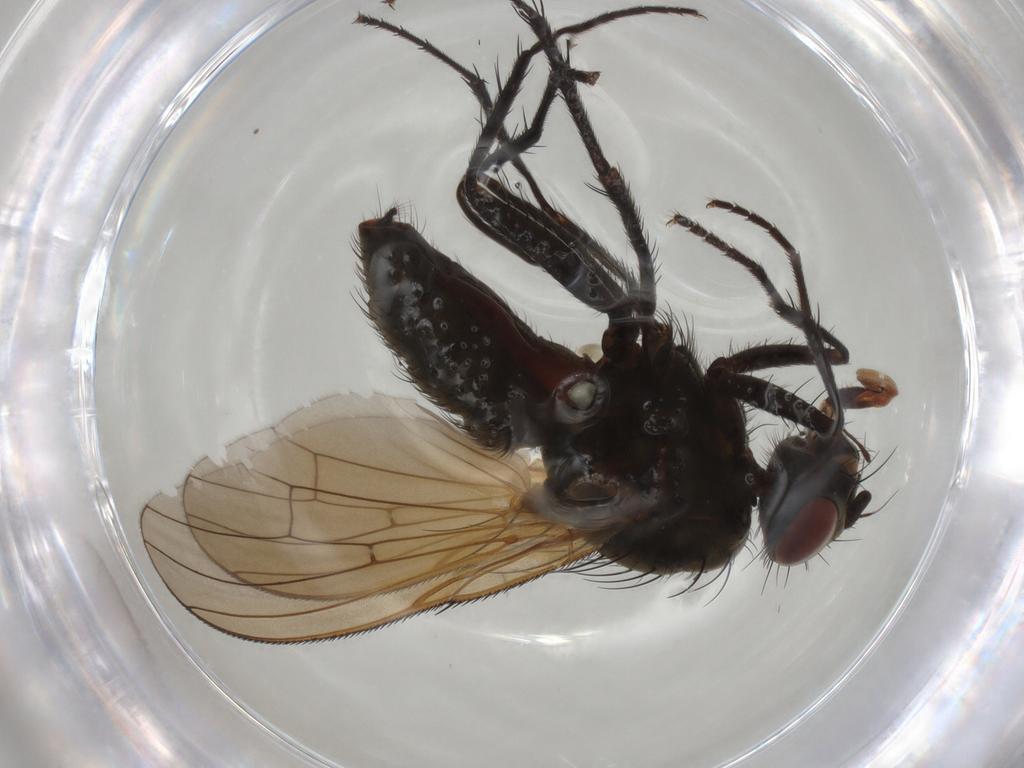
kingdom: Animalia
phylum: Arthropoda
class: Insecta
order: Diptera
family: Anthomyiidae
